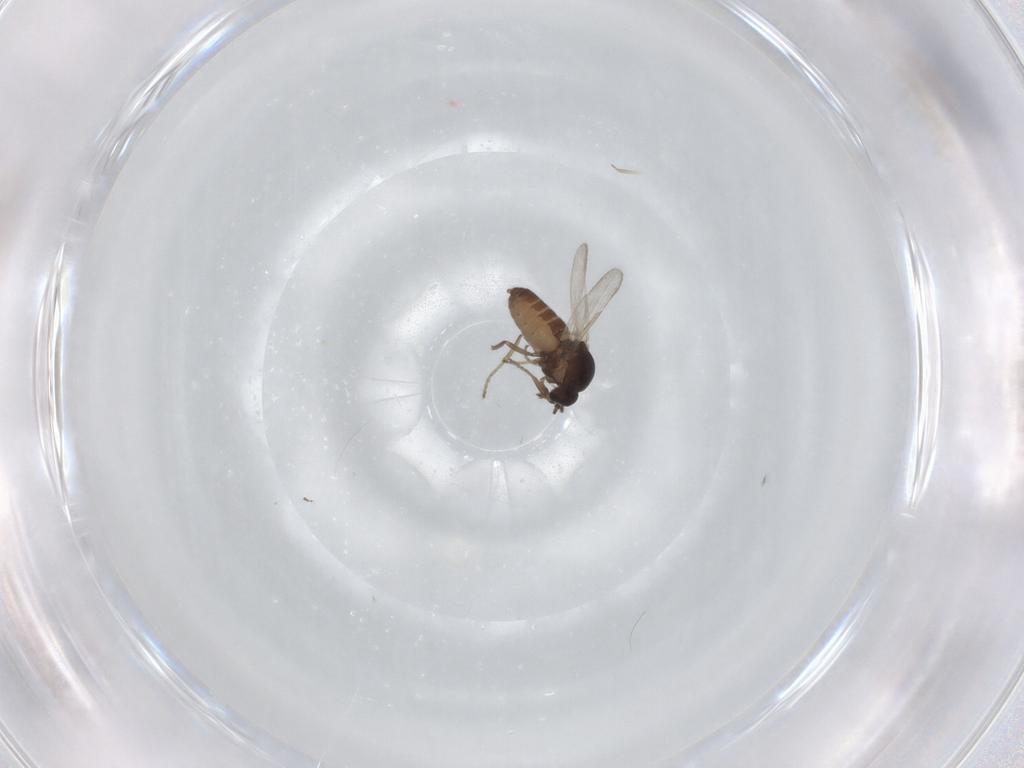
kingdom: Animalia
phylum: Arthropoda
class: Insecta
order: Diptera
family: Ceratopogonidae
